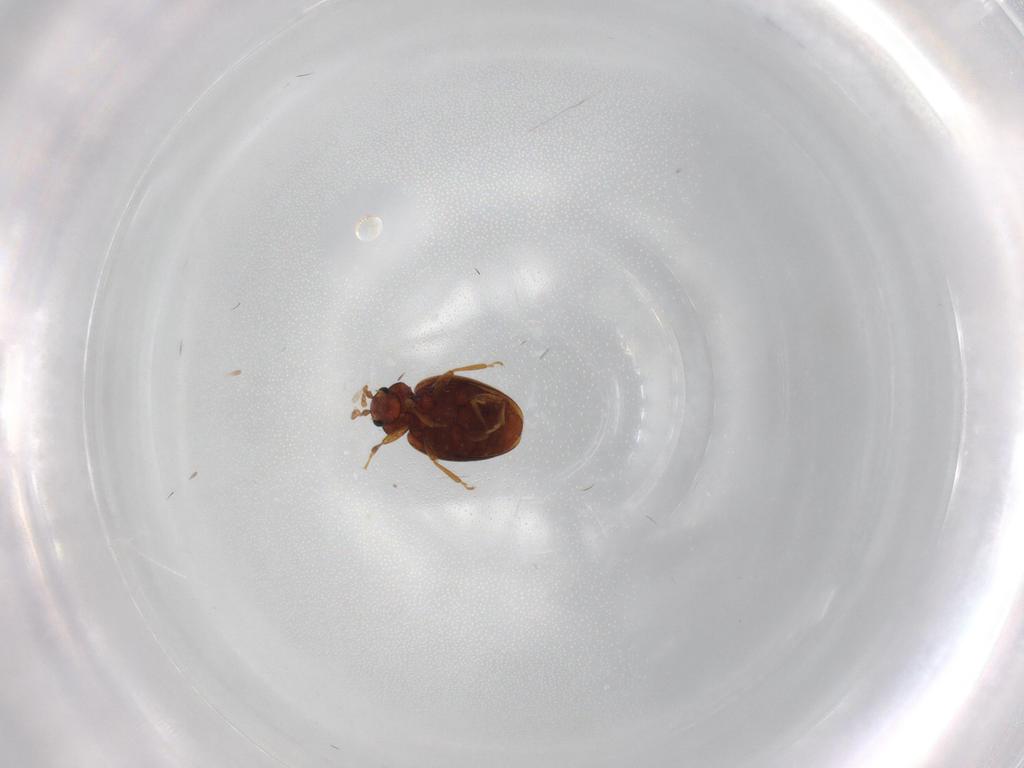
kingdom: Animalia
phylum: Arthropoda
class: Insecta
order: Coleoptera
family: Latridiidae
